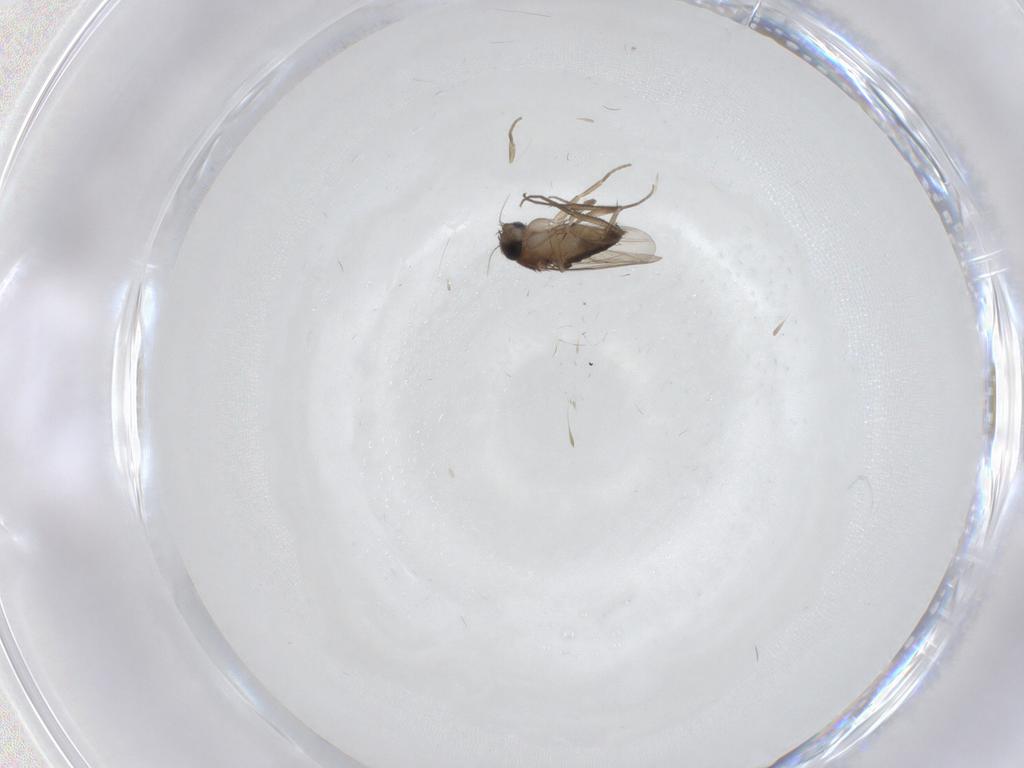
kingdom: Animalia
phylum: Arthropoda
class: Insecta
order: Diptera
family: Phoridae
